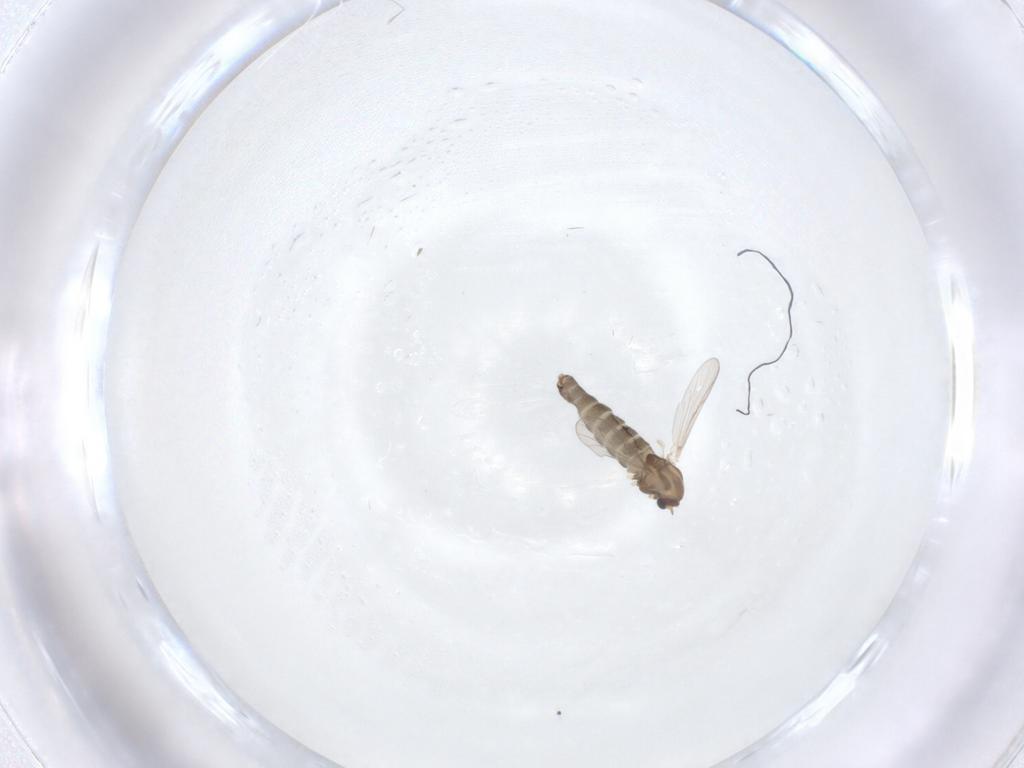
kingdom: Animalia
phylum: Arthropoda
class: Insecta
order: Diptera
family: Chironomidae
